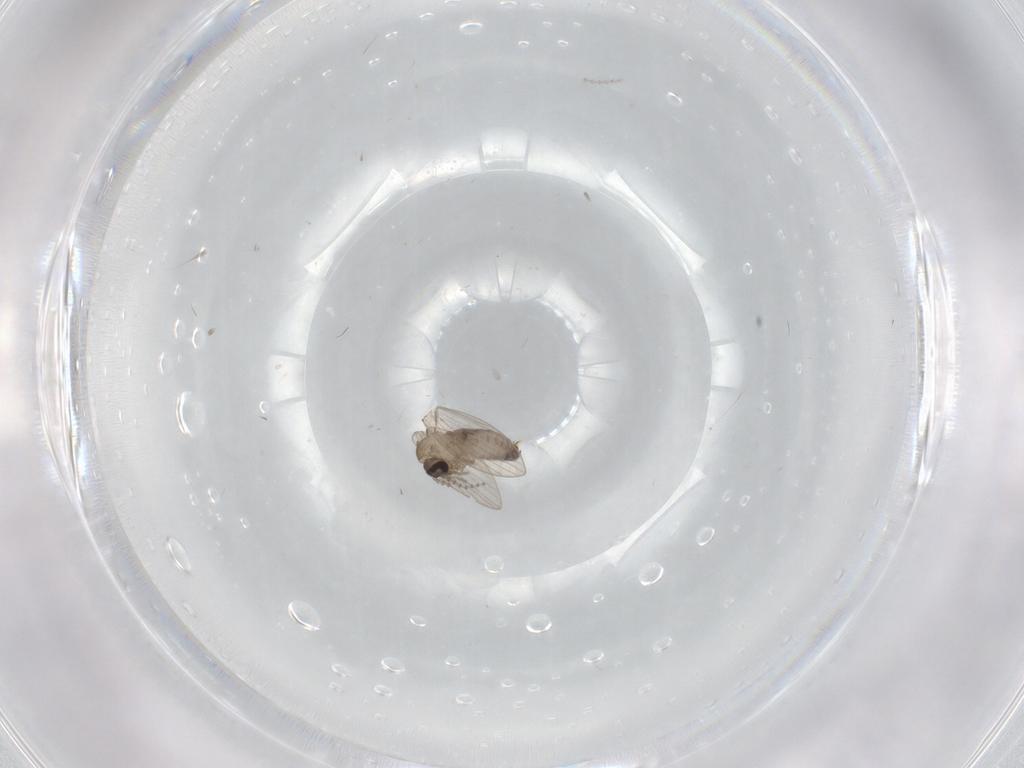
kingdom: Animalia
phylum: Arthropoda
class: Insecta
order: Diptera
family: Psychodidae
